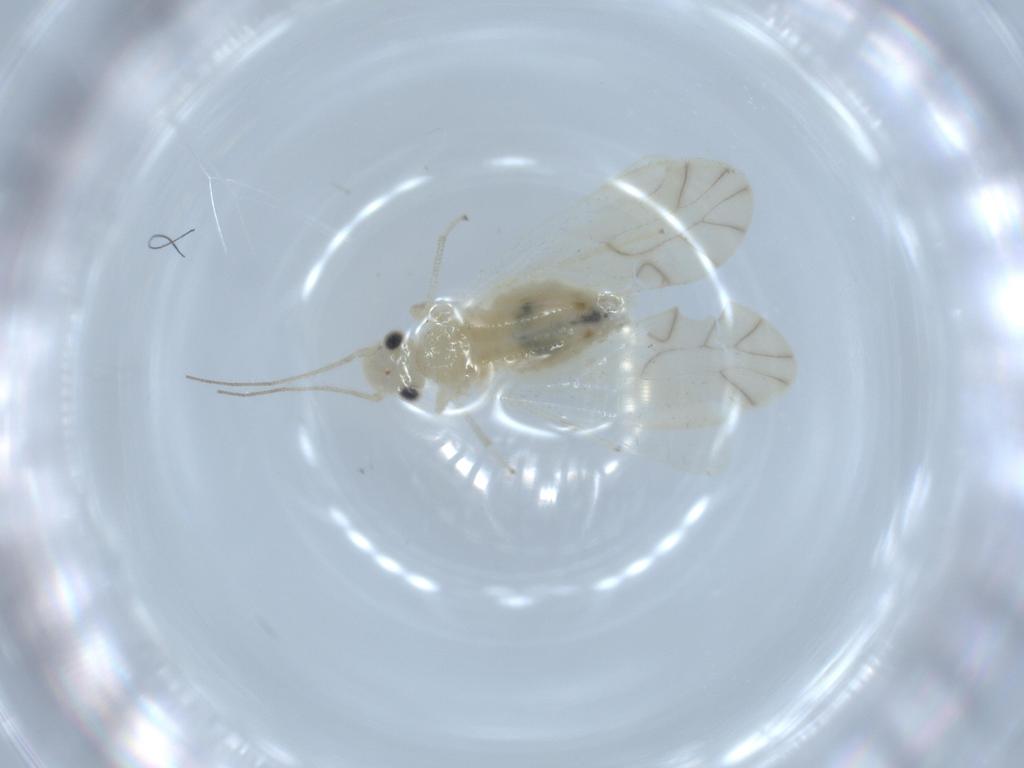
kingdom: Animalia
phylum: Arthropoda
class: Insecta
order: Psocodea
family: Caeciliusidae
